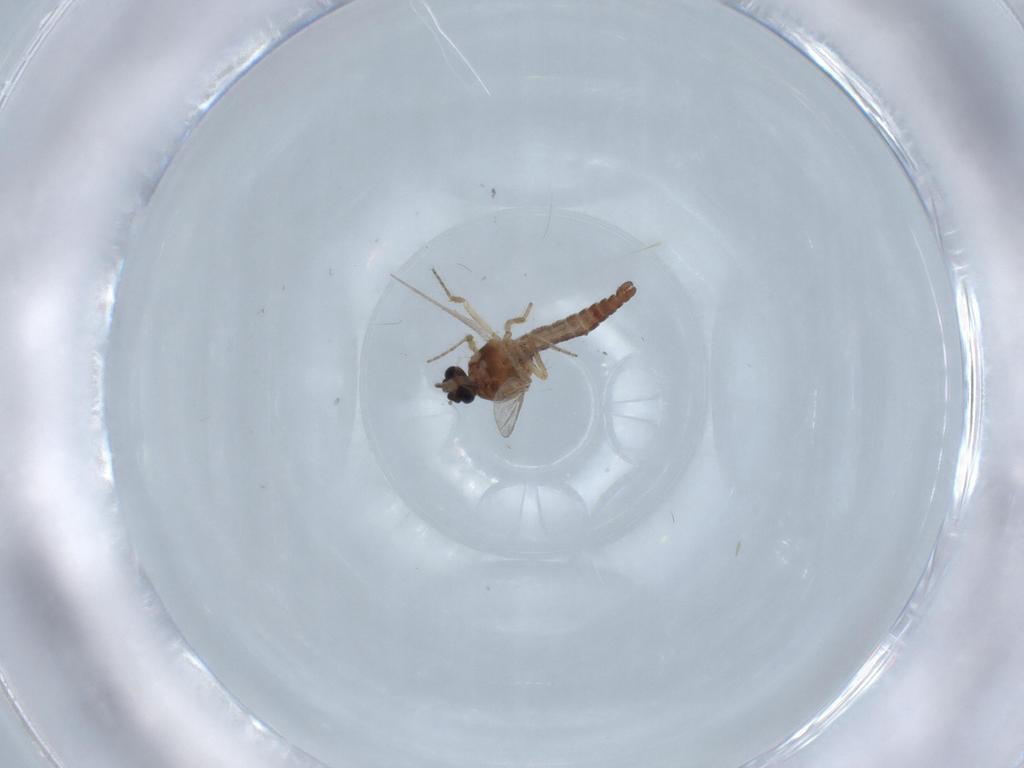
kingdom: Animalia
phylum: Arthropoda
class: Insecta
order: Diptera
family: Ceratopogonidae
